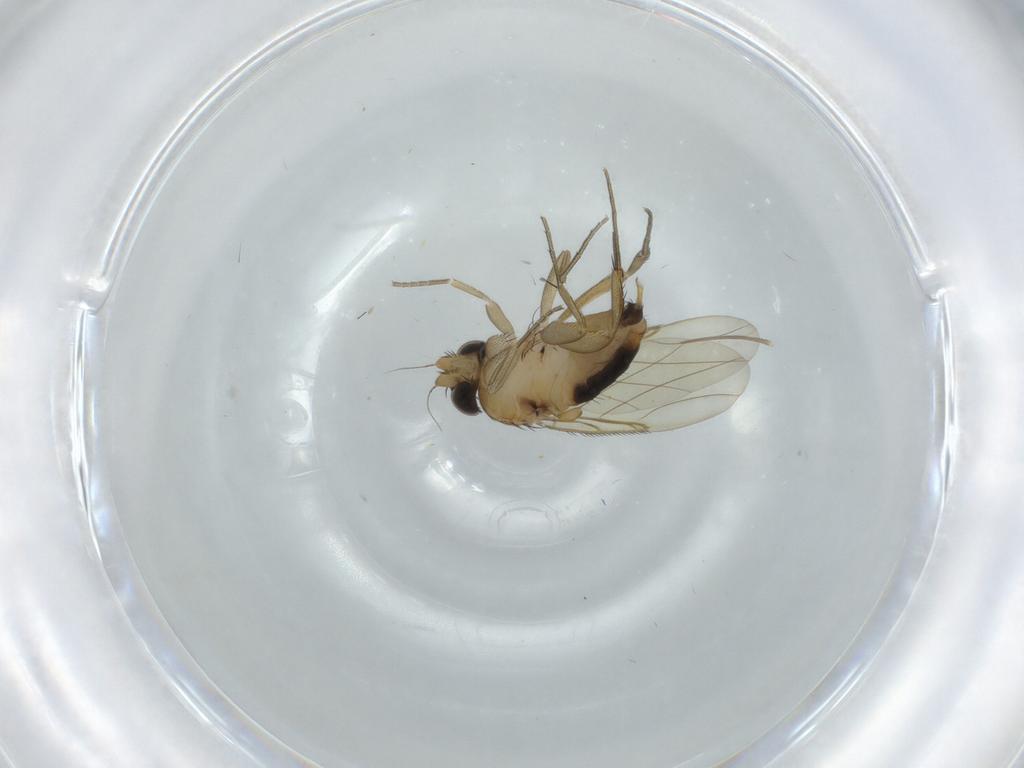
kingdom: Animalia
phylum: Arthropoda
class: Insecta
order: Diptera
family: Phoridae
